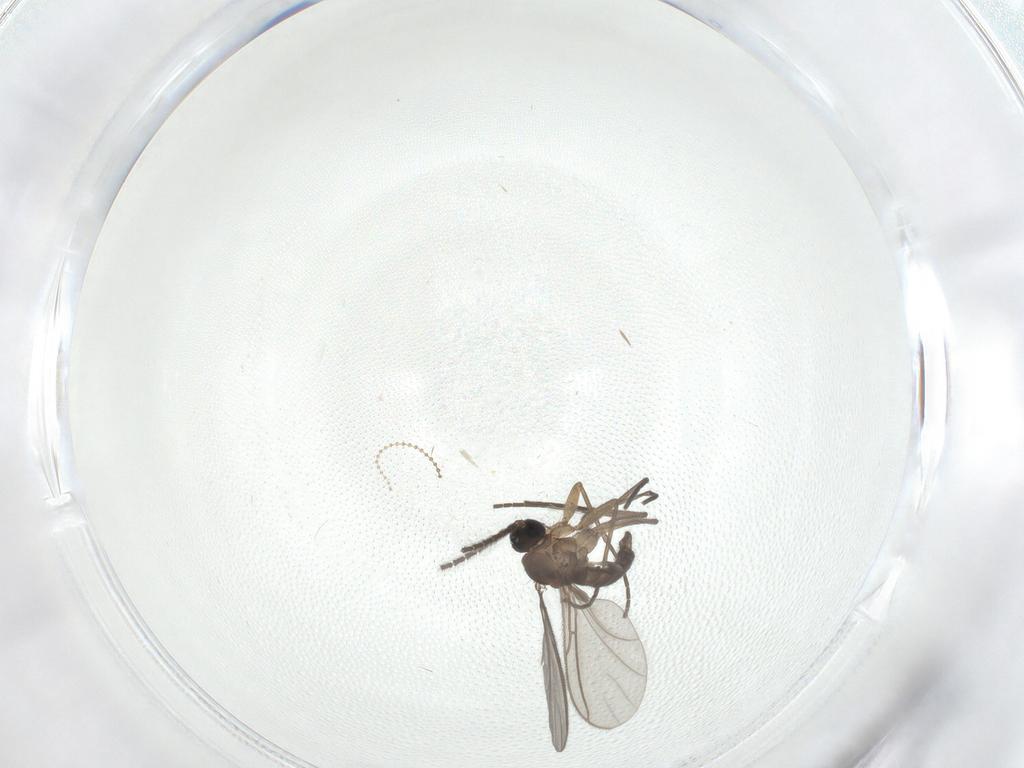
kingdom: Animalia
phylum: Arthropoda
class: Insecta
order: Diptera
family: Sciaridae
